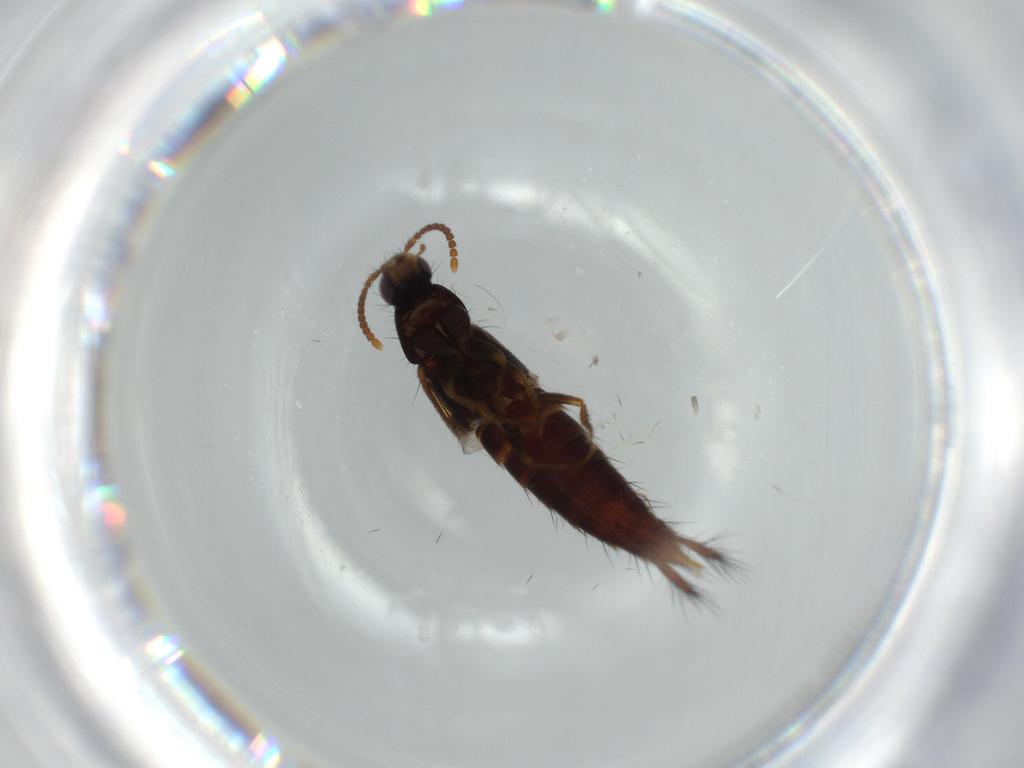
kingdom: Animalia
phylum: Arthropoda
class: Insecta
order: Coleoptera
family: Staphylinidae
